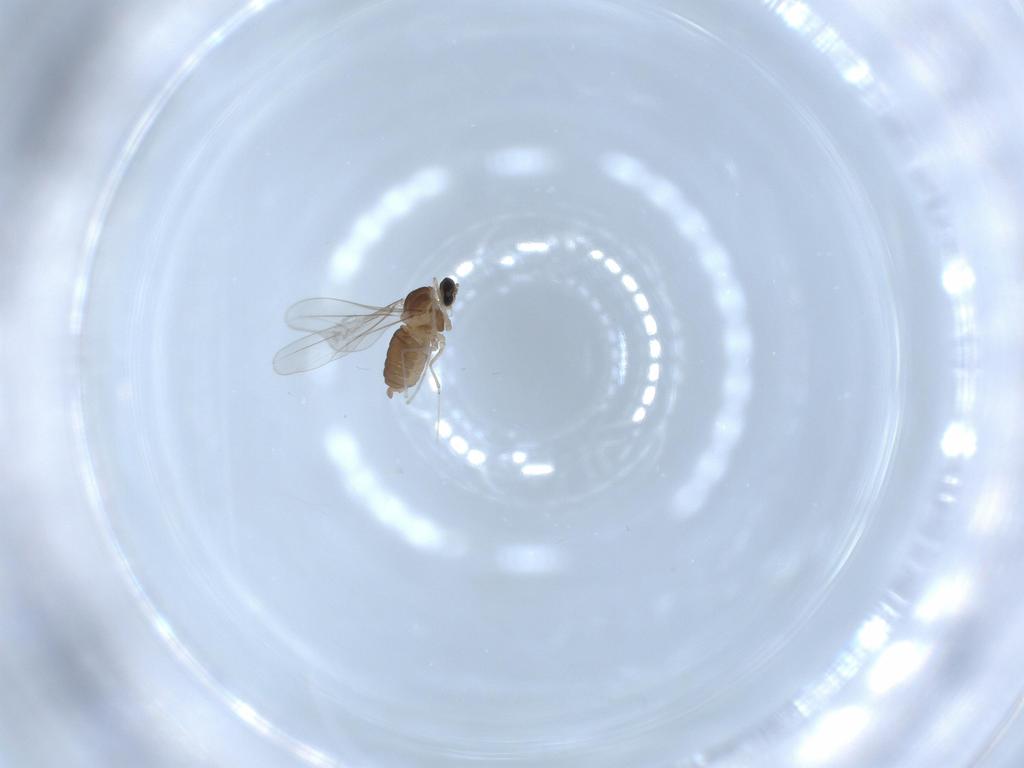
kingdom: Animalia
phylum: Arthropoda
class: Insecta
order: Diptera
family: Cecidomyiidae
